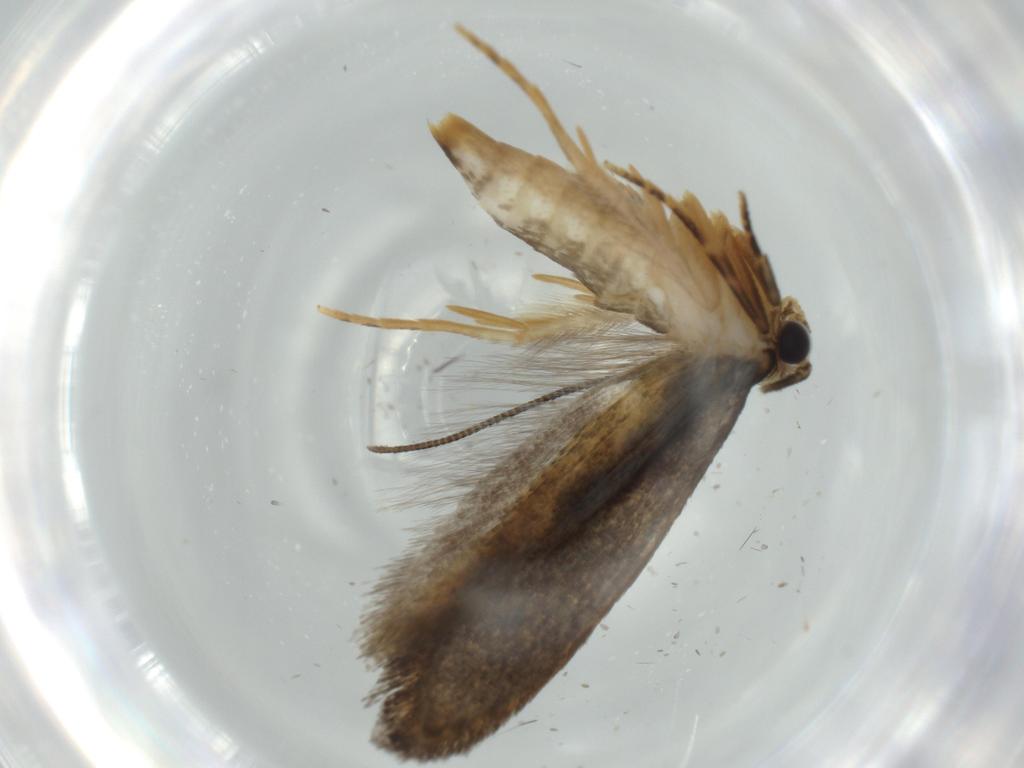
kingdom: Animalia
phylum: Arthropoda
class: Insecta
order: Lepidoptera
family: Tineidae
